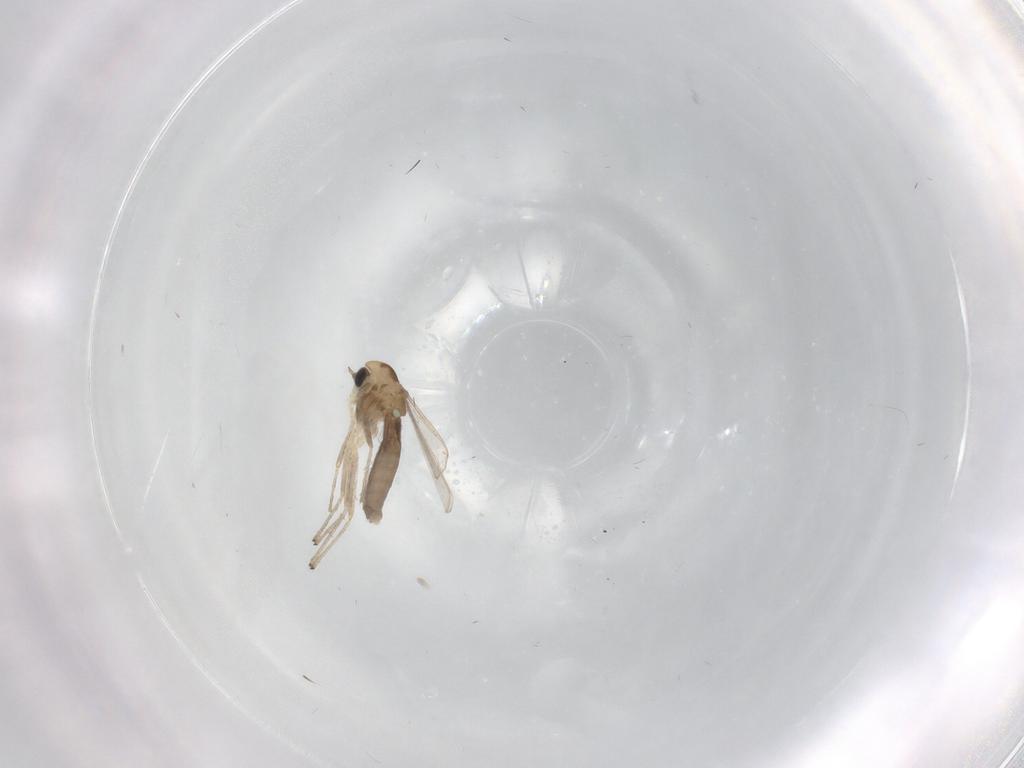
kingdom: Animalia
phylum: Arthropoda
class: Insecta
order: Diptera
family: Chironomidae
